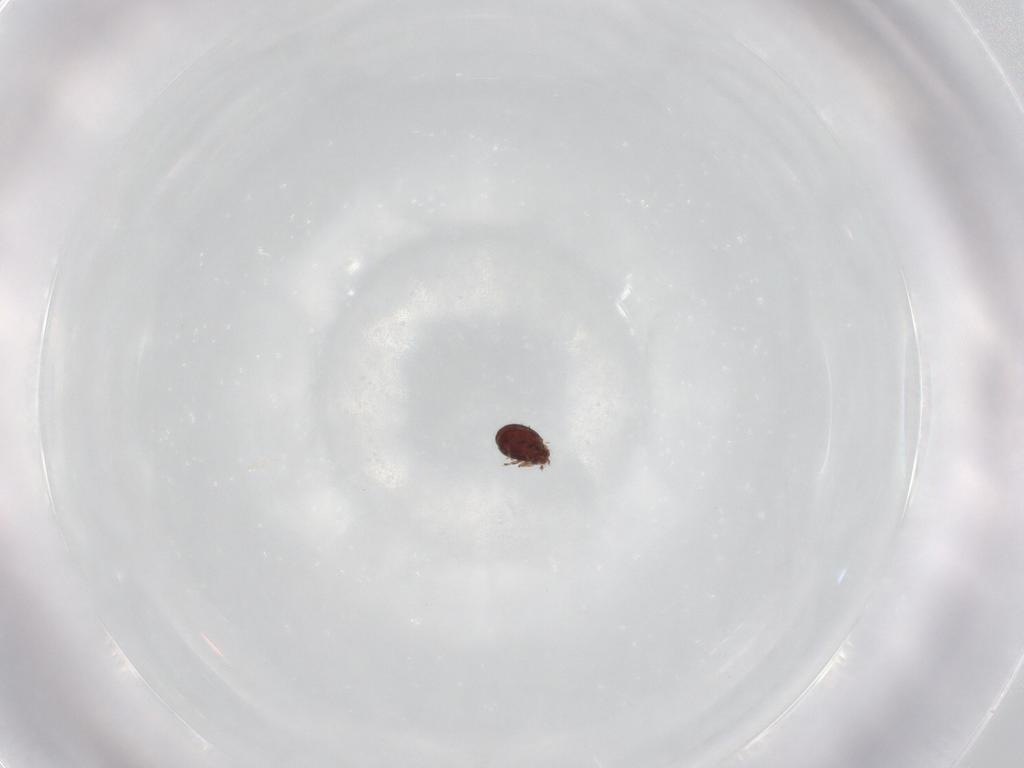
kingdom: Animalia
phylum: Arthropoda
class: Arachnida
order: Sarcoptiformes
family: Phenopelopidae
